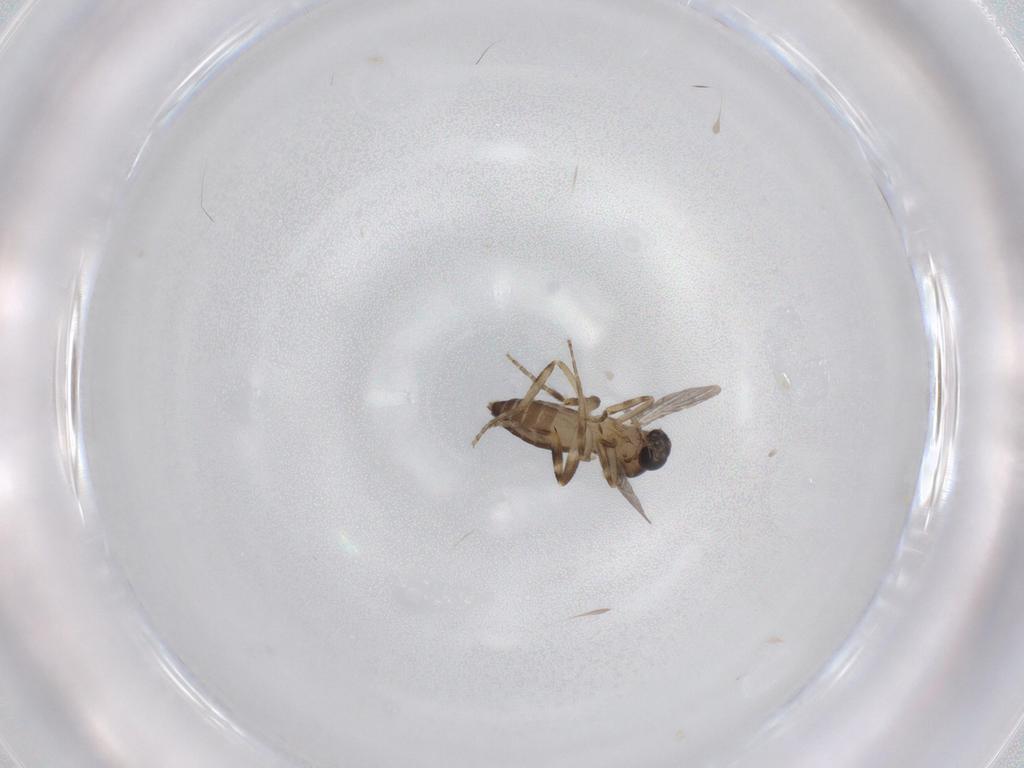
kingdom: Animalia
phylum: Arthropoda
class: Insecta
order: Diptera
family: Ceratopogonidae
